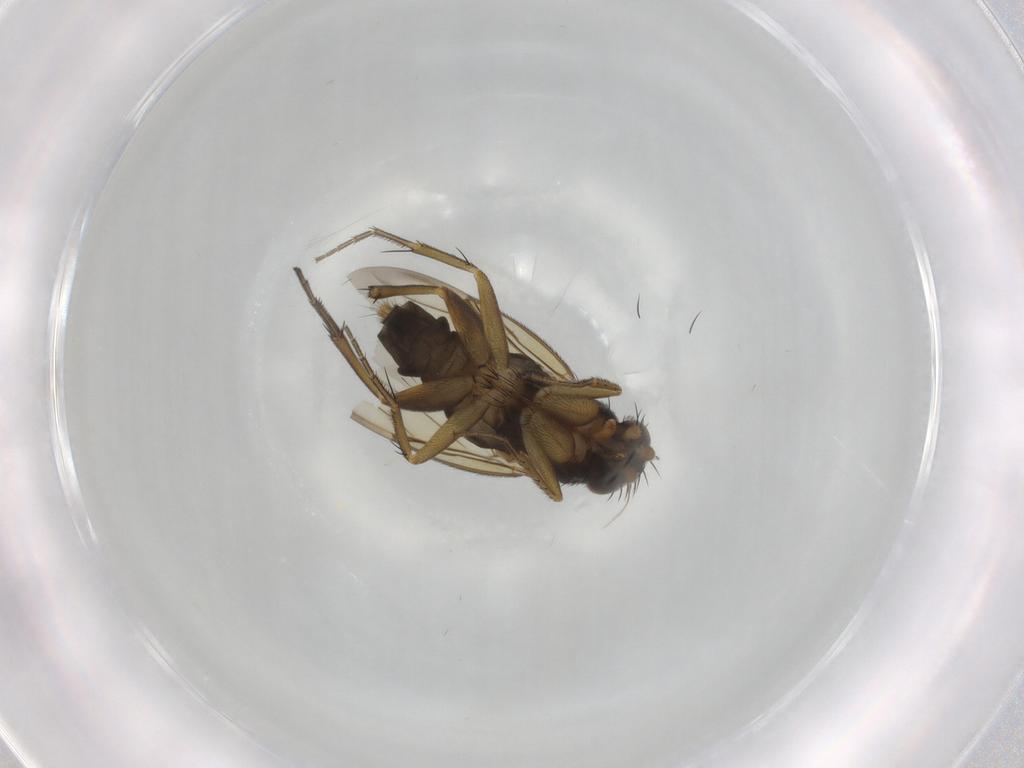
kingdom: Animalia
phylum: Arthropoda
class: Insecta
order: Diptera
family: Phoridae
